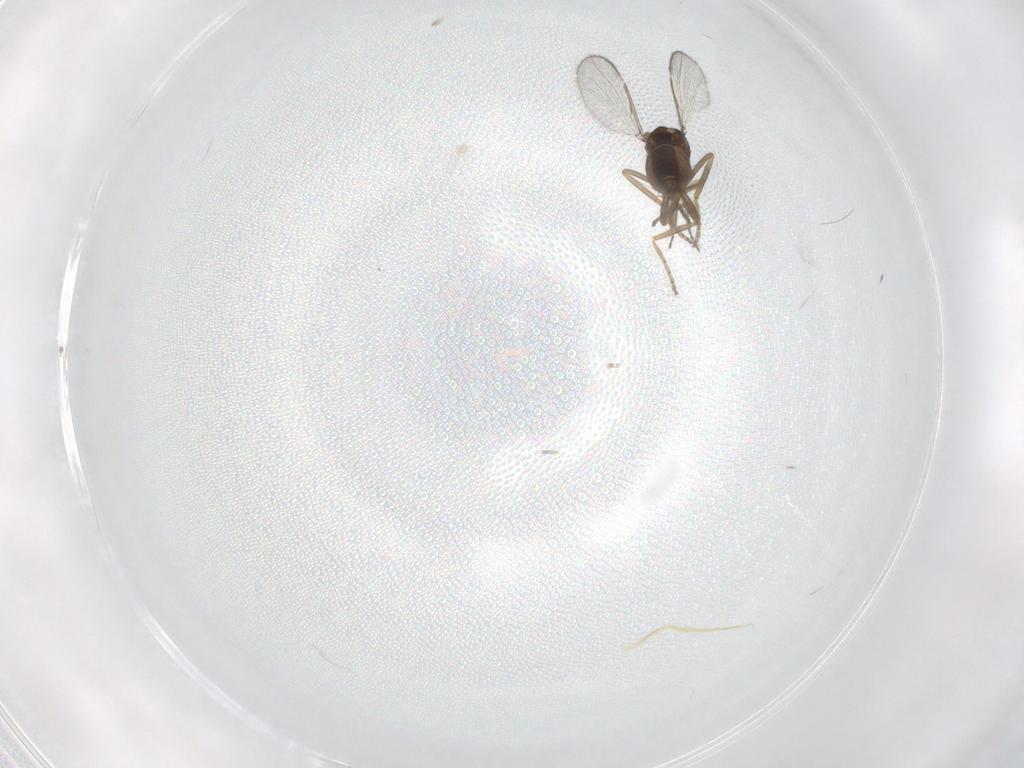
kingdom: Animalia
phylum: Arthropoda
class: Insecta
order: Diptera
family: Ceratopogonidae
